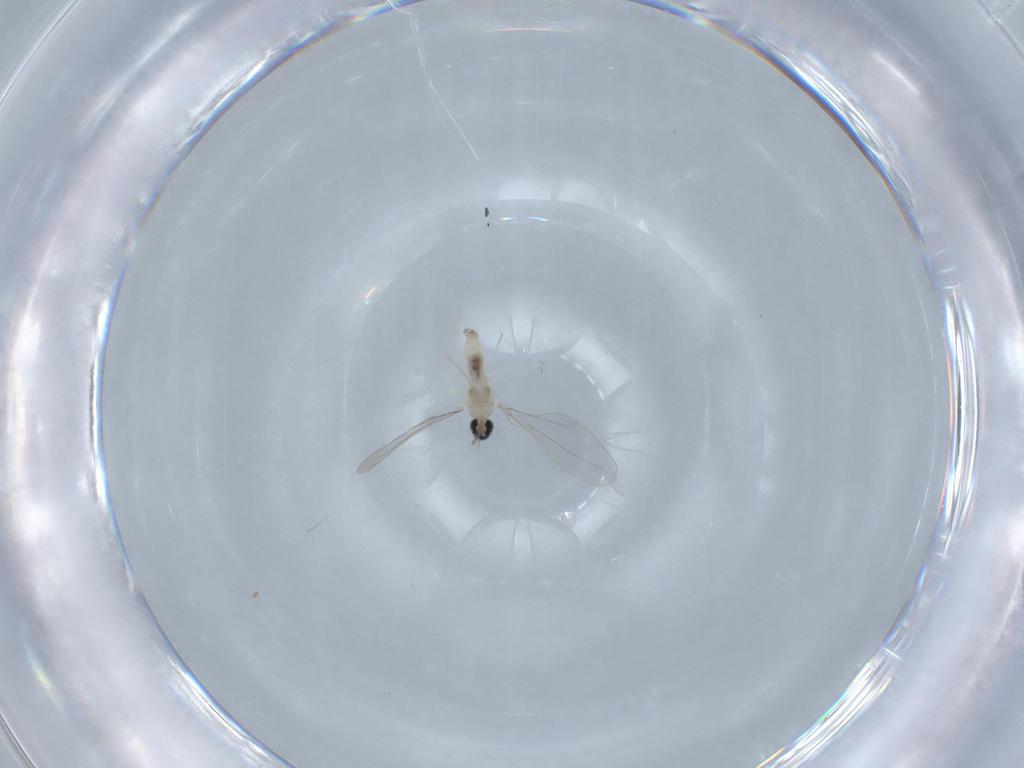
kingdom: Animalia
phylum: Arthropoda
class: Insecta
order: Diptera
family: Cecidomyiidae
